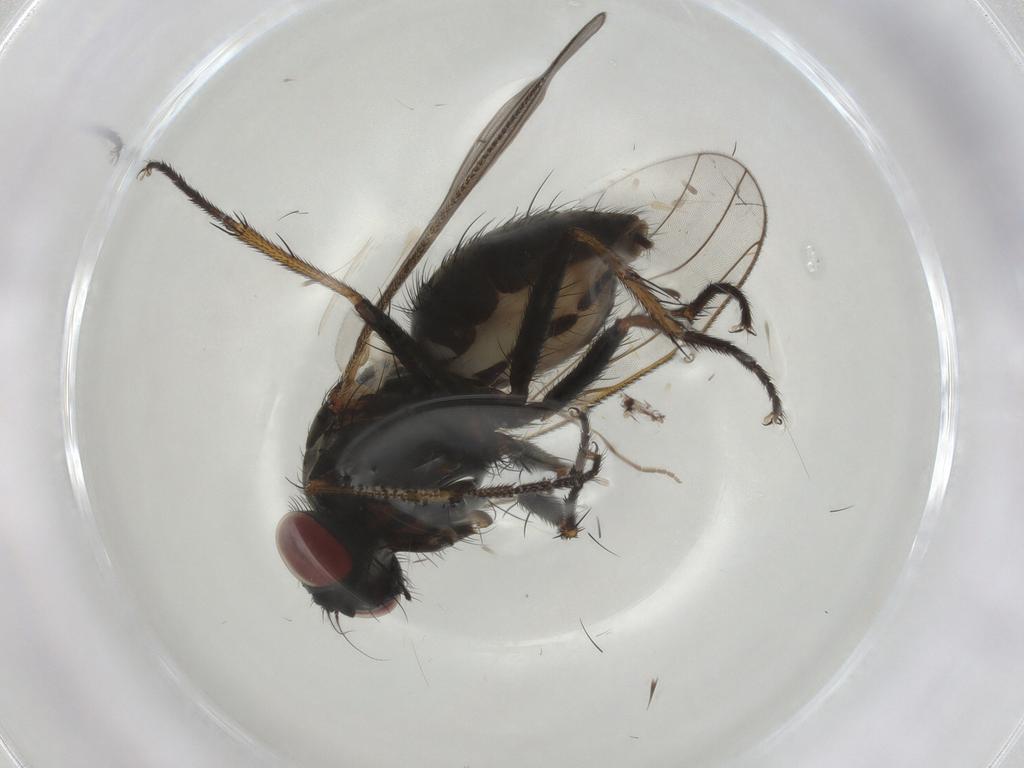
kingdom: Animalia
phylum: Arthropoda
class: Insecta
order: Diptera
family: Muscidae
